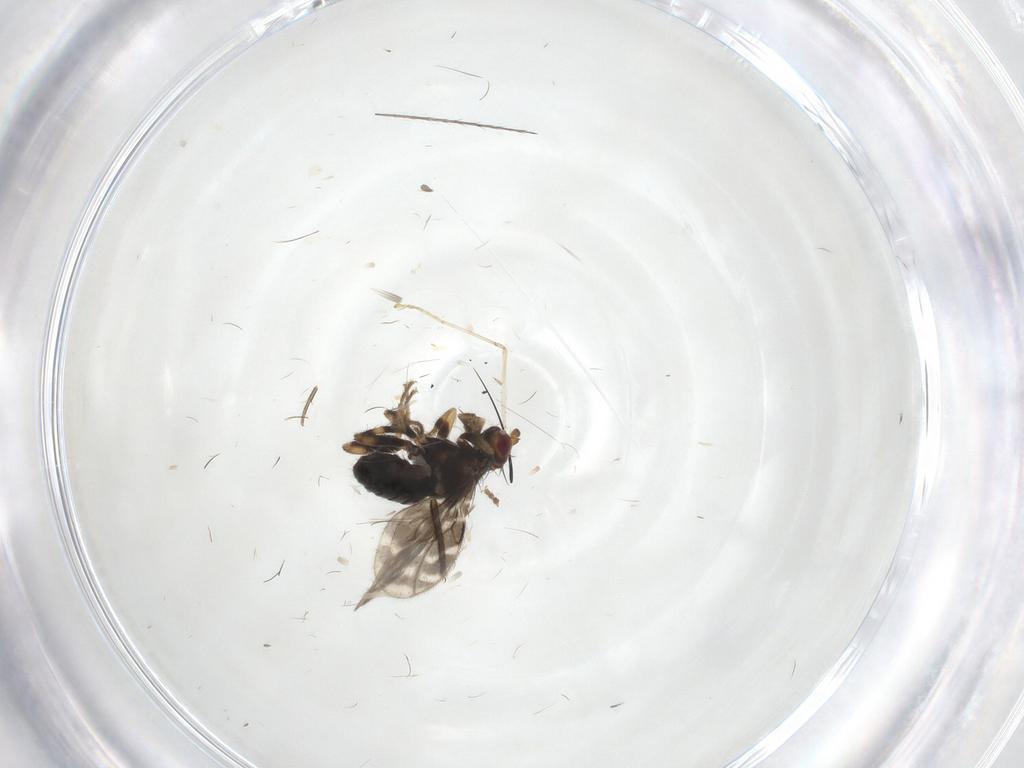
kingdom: Animalia
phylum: Arthropoda
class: Insecta
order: Diptera
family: Sphaeroceridae
